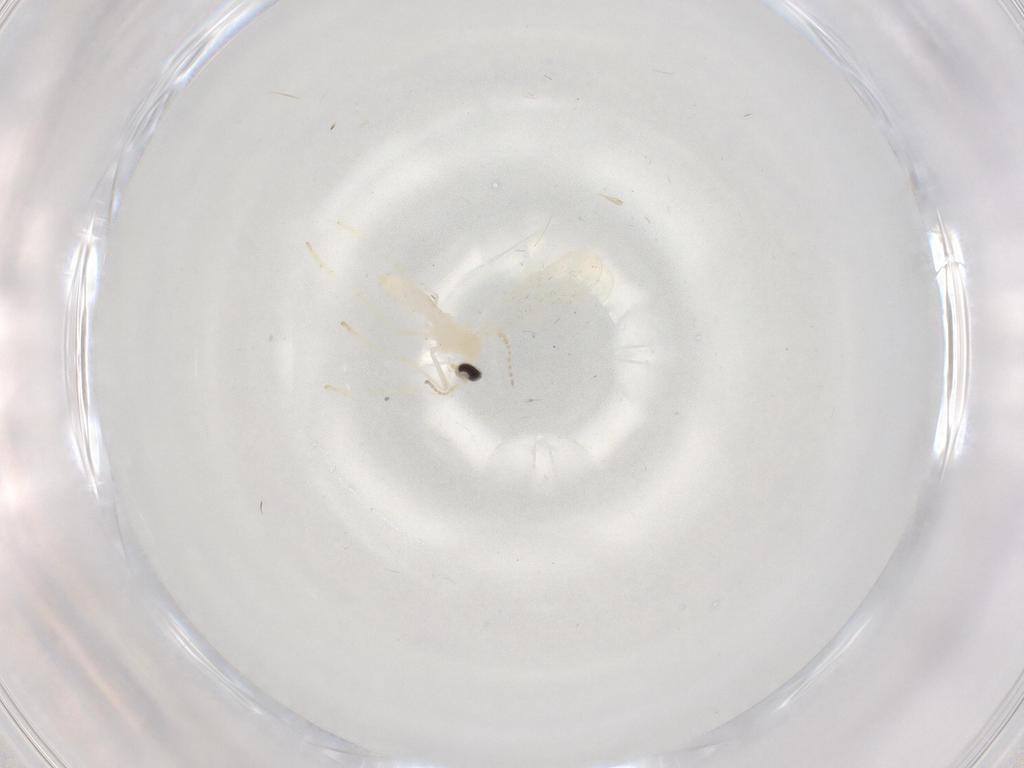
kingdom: Animalia
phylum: Arthropoda
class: Insecta
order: Diptera
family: Cecidomyiidae
